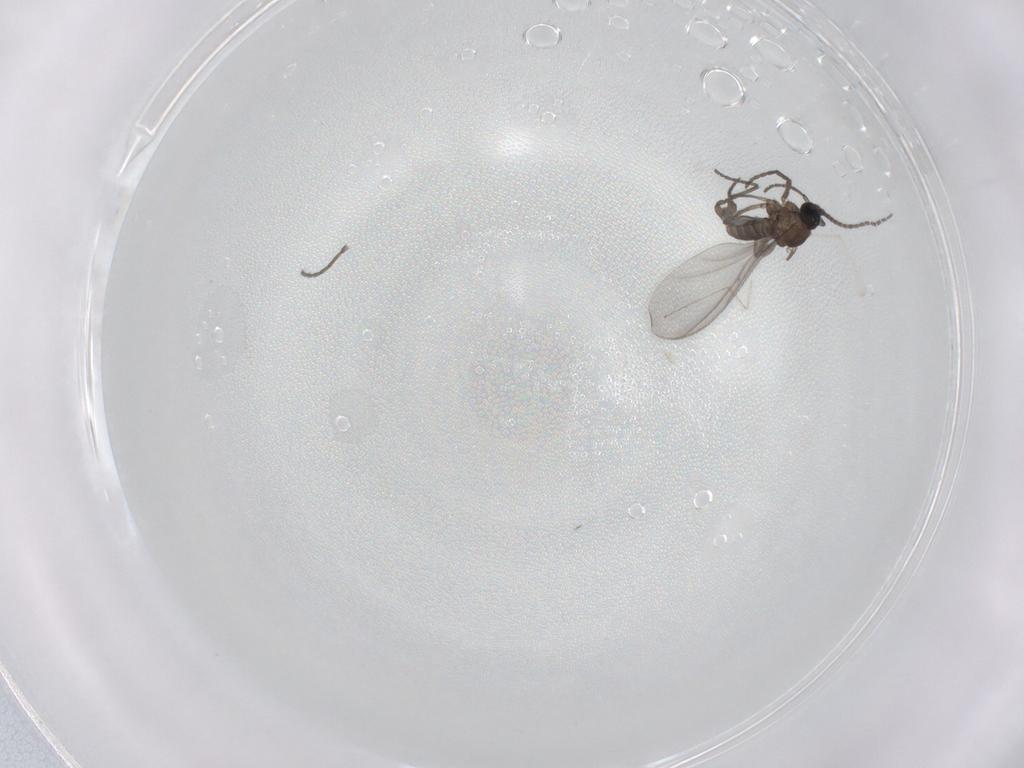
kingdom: Animalia
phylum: Arthropoda
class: Insecta
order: Diptera
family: Sciaridae
